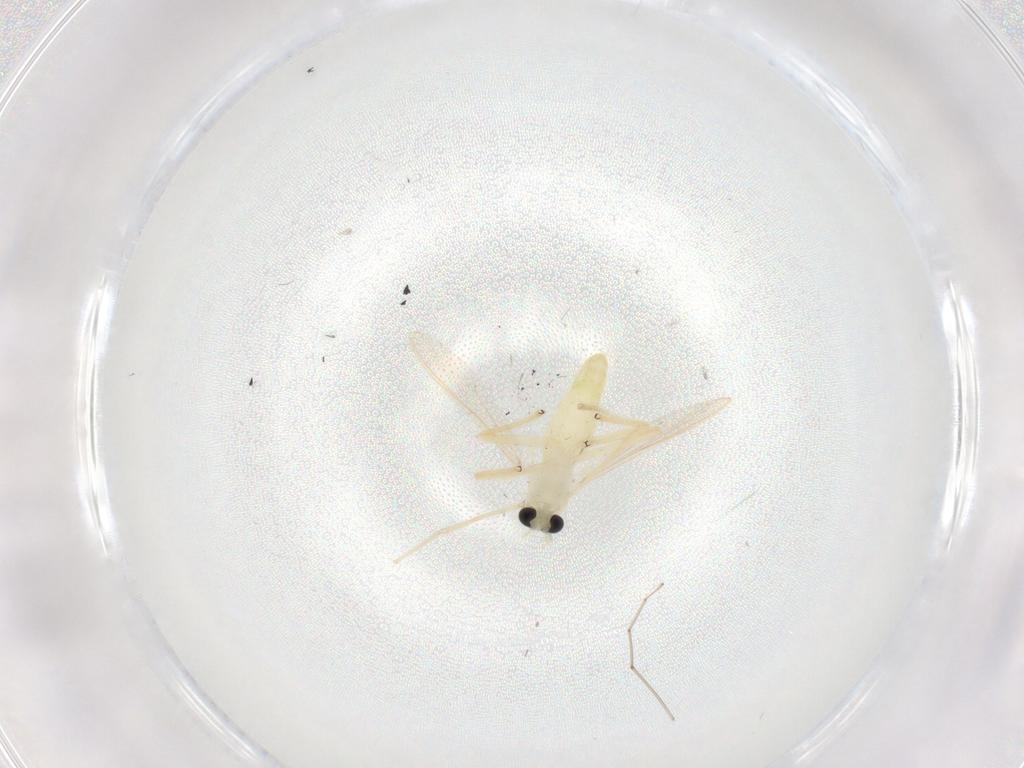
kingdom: Animalia
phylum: Arthropoda
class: Insecta
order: Diptera
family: Chironomidae
